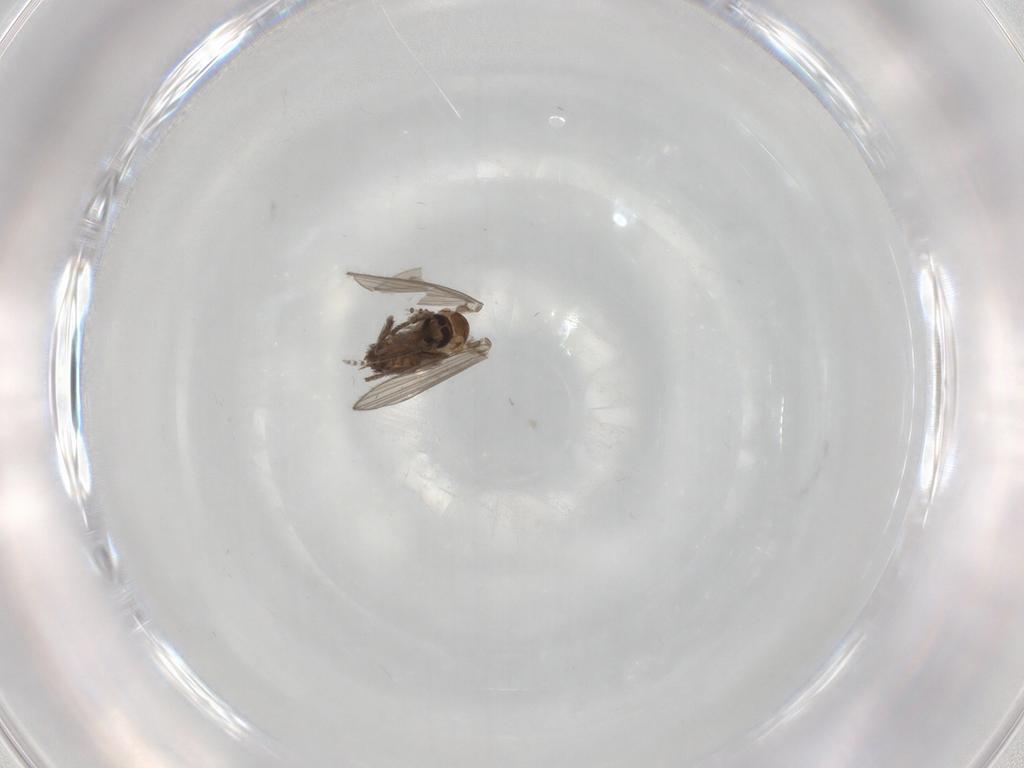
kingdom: Animalia
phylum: Arthropoda
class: Insecta
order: Diptera
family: Psychodidae
